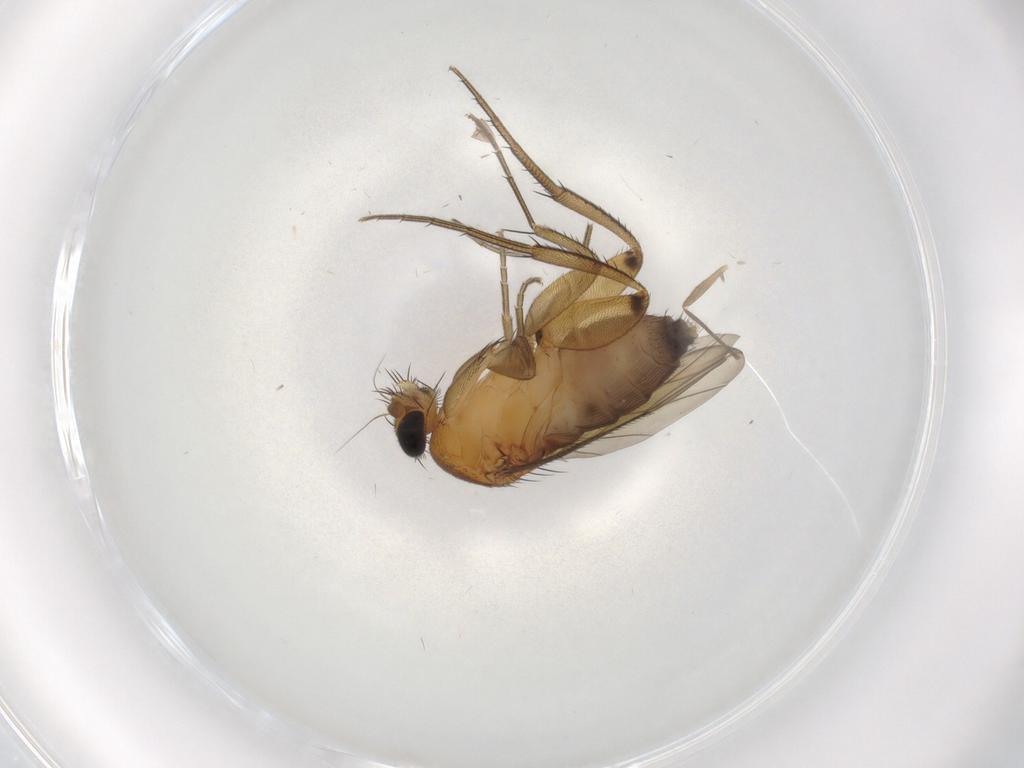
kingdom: Animalia
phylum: Arthropoda
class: Insecta
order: Diptera
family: Phoridae
